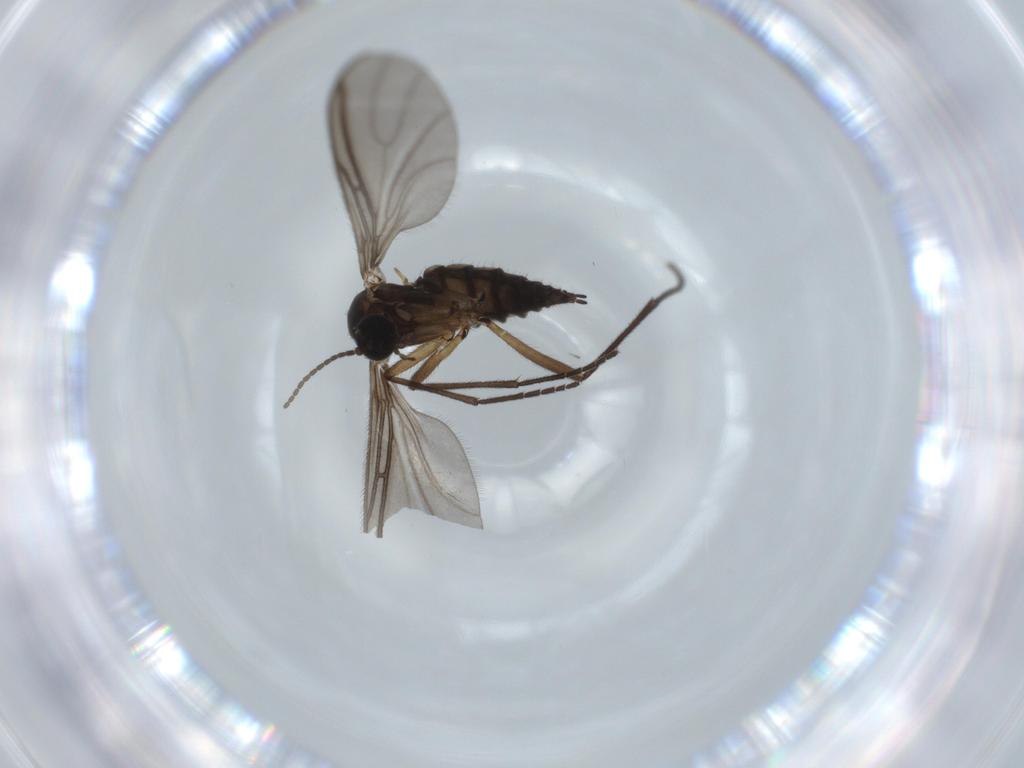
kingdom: Animalia
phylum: Arthropoda
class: Insecta
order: Diptera
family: Sciaridae
